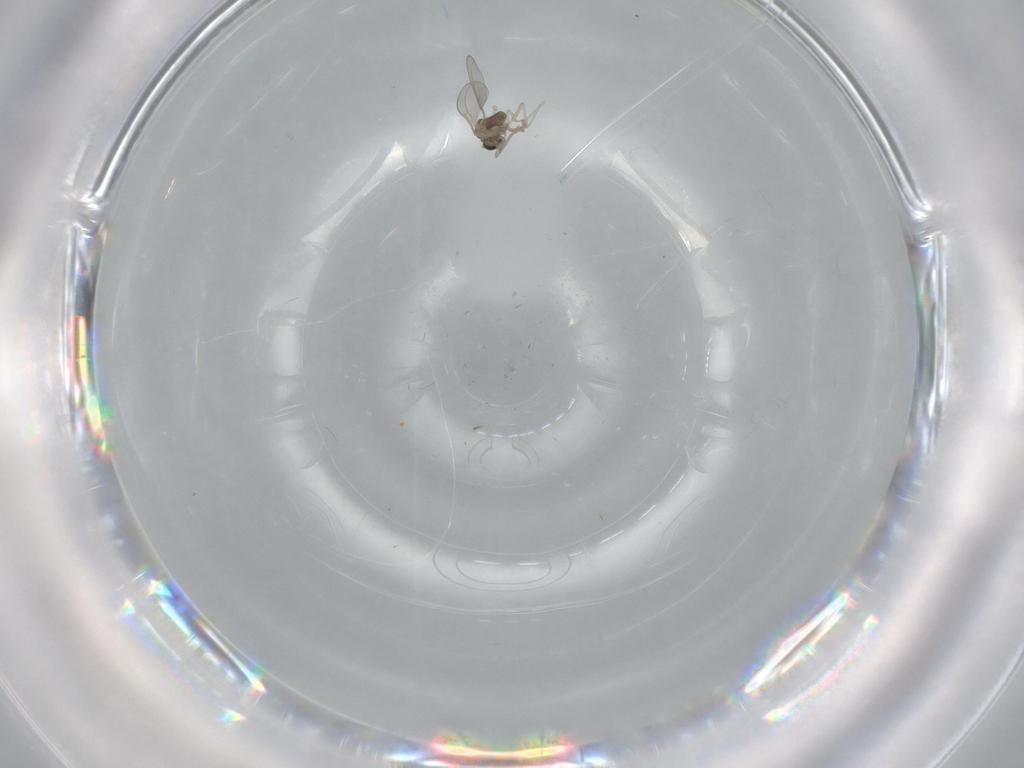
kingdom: Animalia
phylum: Arthropoda
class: Insecta
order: Diptera
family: Cecidomyiidae
